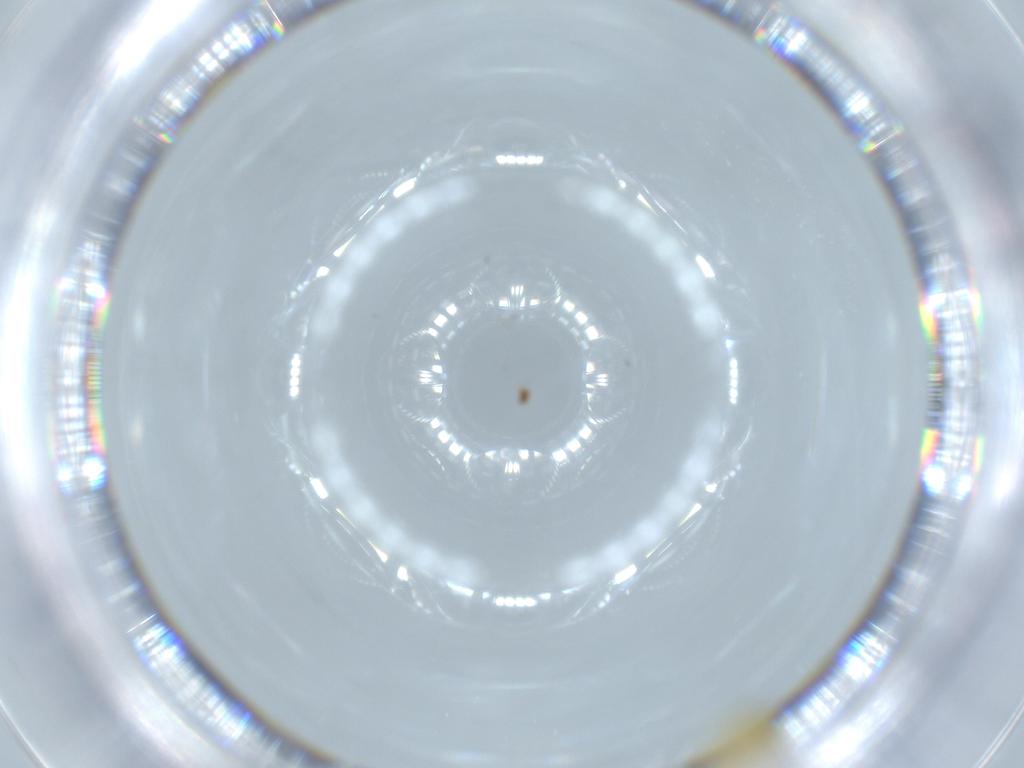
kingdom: Animalia
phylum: Arthropoda
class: Insecta
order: Hemiptera
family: Aleyrodidae
